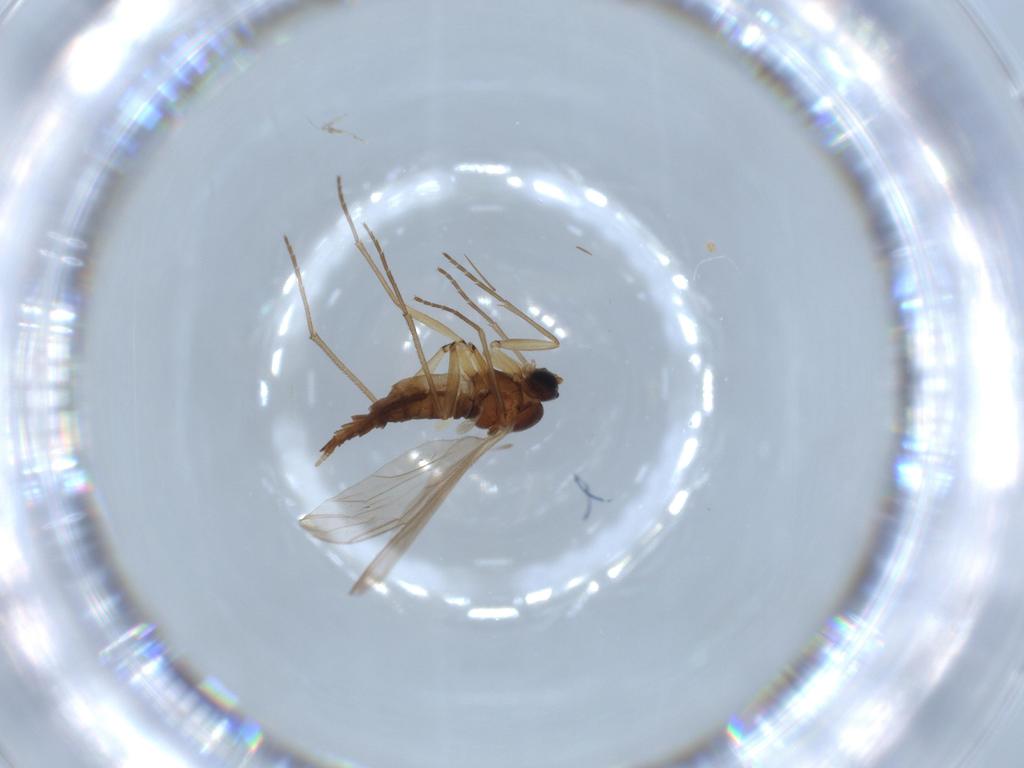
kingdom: Animalia
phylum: Arthropoda
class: Insecta
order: Diptera
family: Sciaridae
